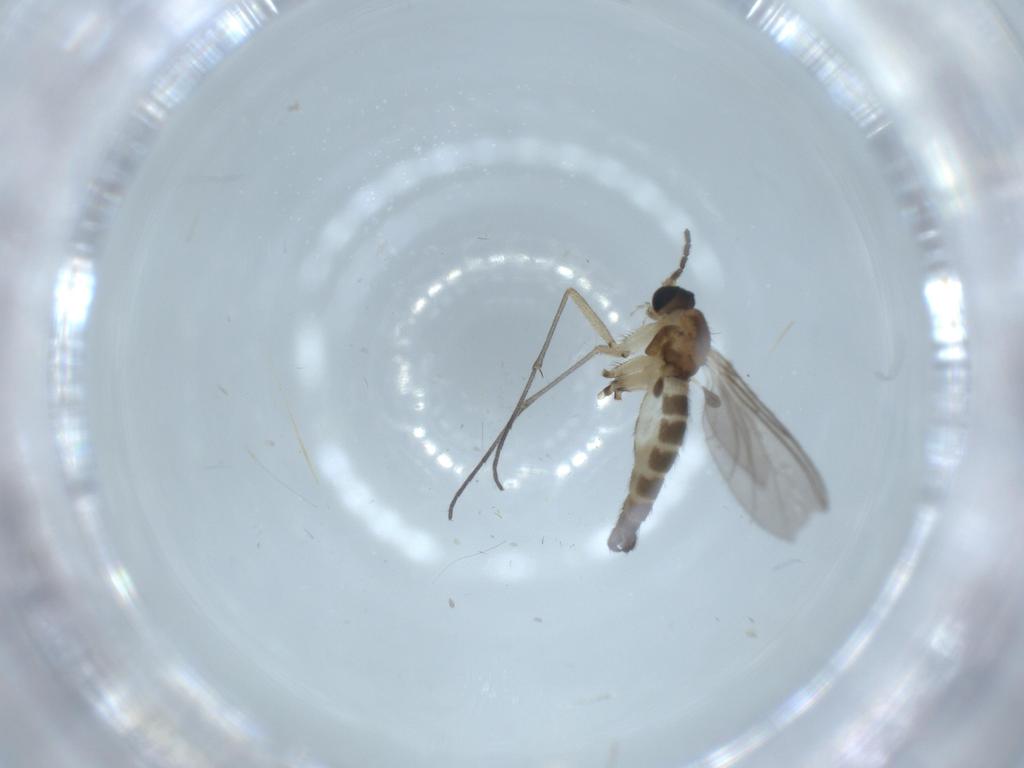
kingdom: Animalia
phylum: Arthropoda
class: Insecta
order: Diptera
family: Sciaridae
